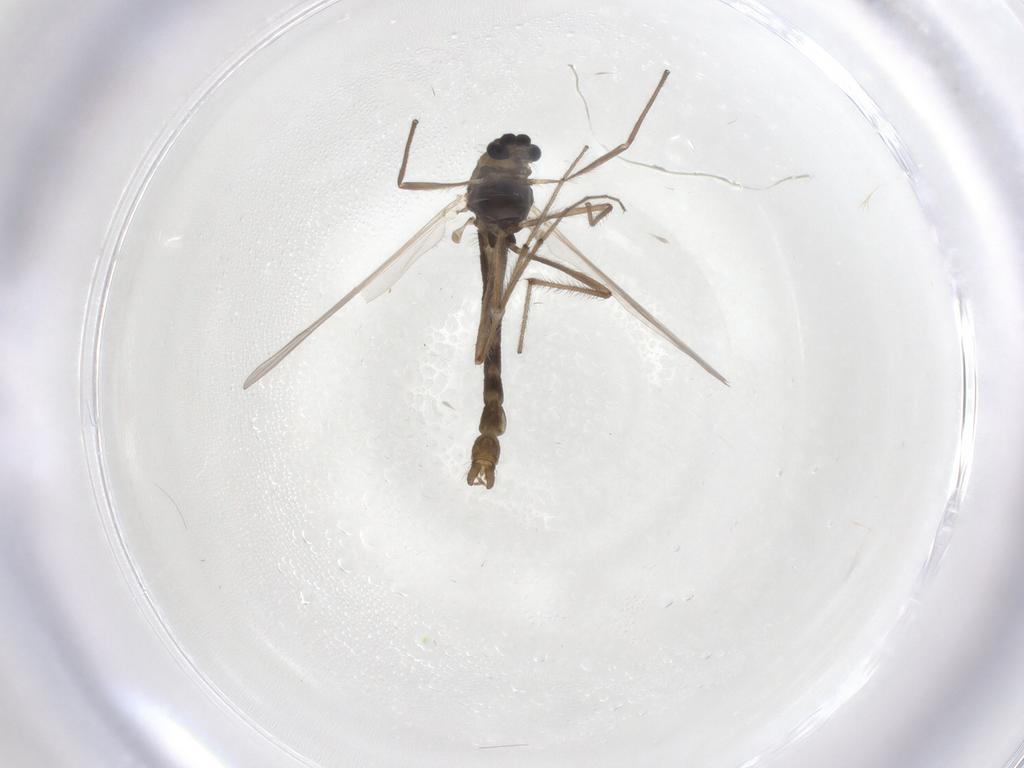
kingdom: Animalia
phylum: Arthropoda
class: Insecta
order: Diptera
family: Chironomidae
